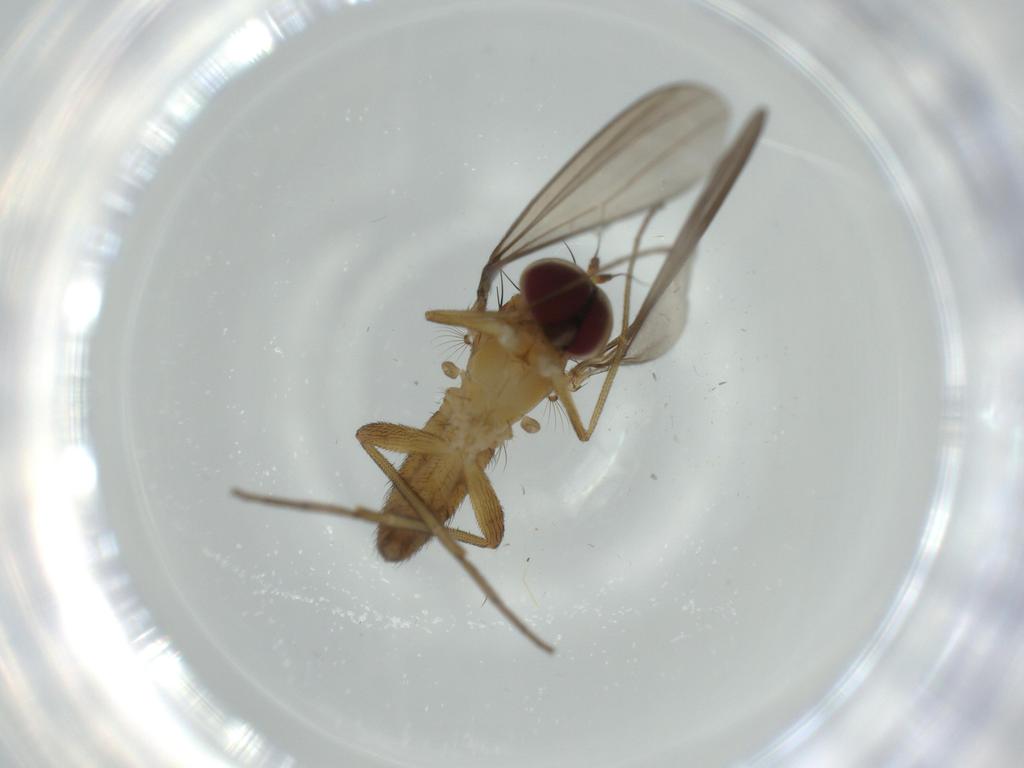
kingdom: Animalia
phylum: Arthropoda
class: Insecta
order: Diptera
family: Dolichopodidae
